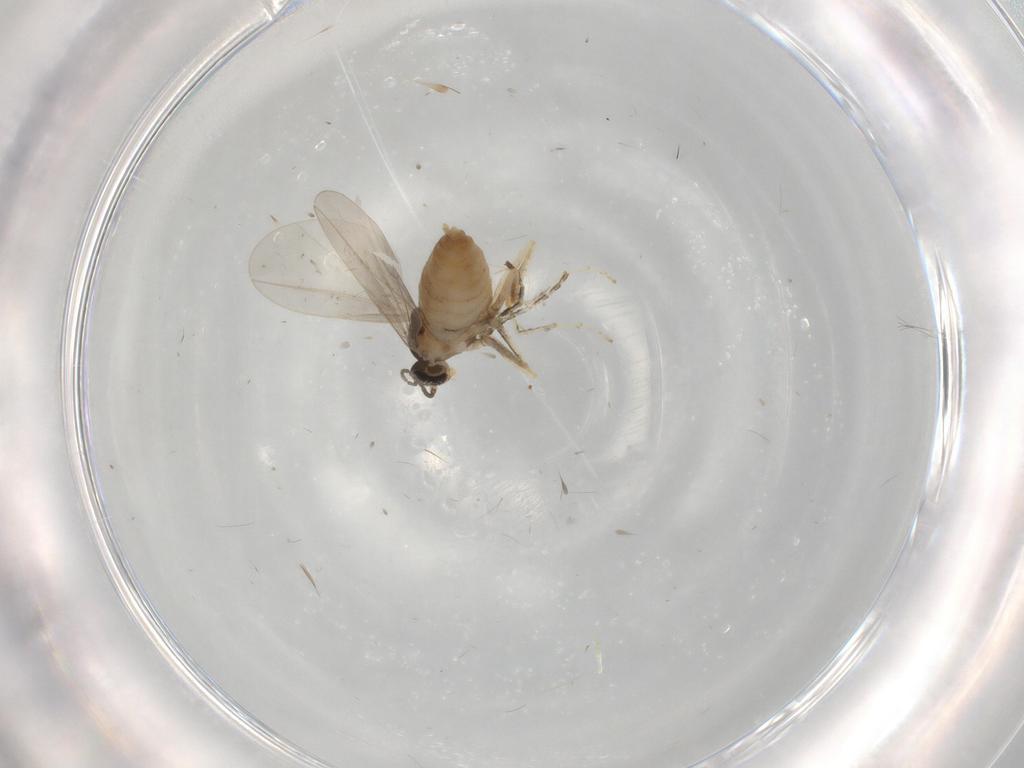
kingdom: Animalia
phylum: Arthropoda
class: Insecta
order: Diptera
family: Cecidomyiidae
